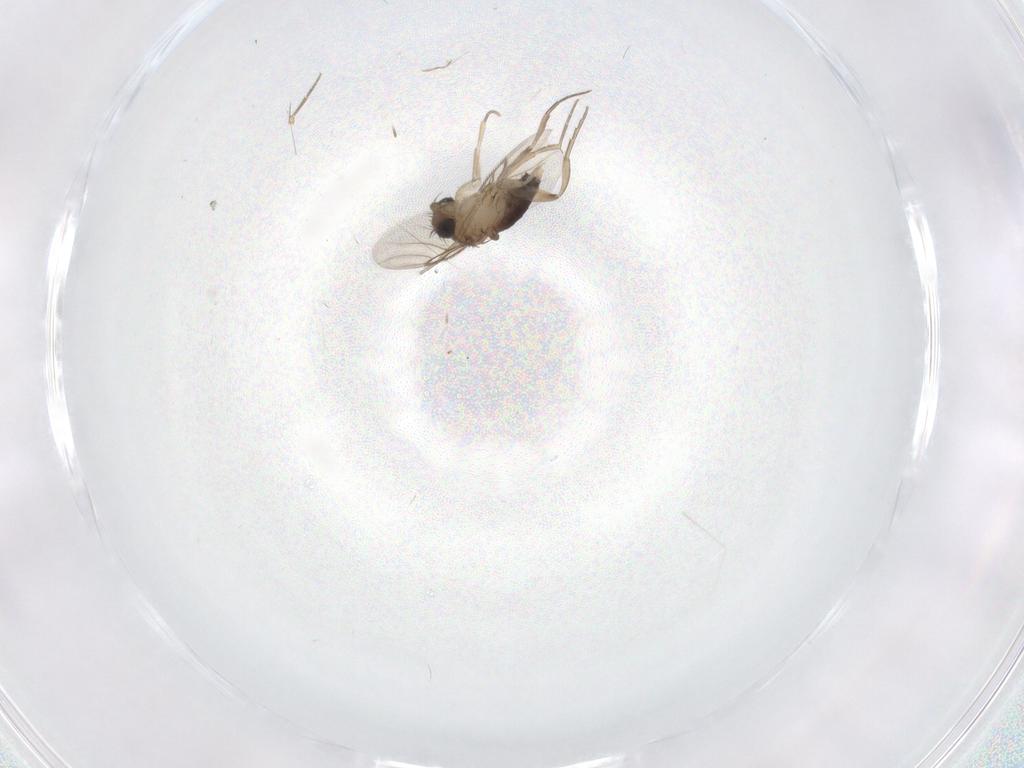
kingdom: Animalia
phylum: Arthropoda
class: Insecta
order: Diptera
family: Phoridae
